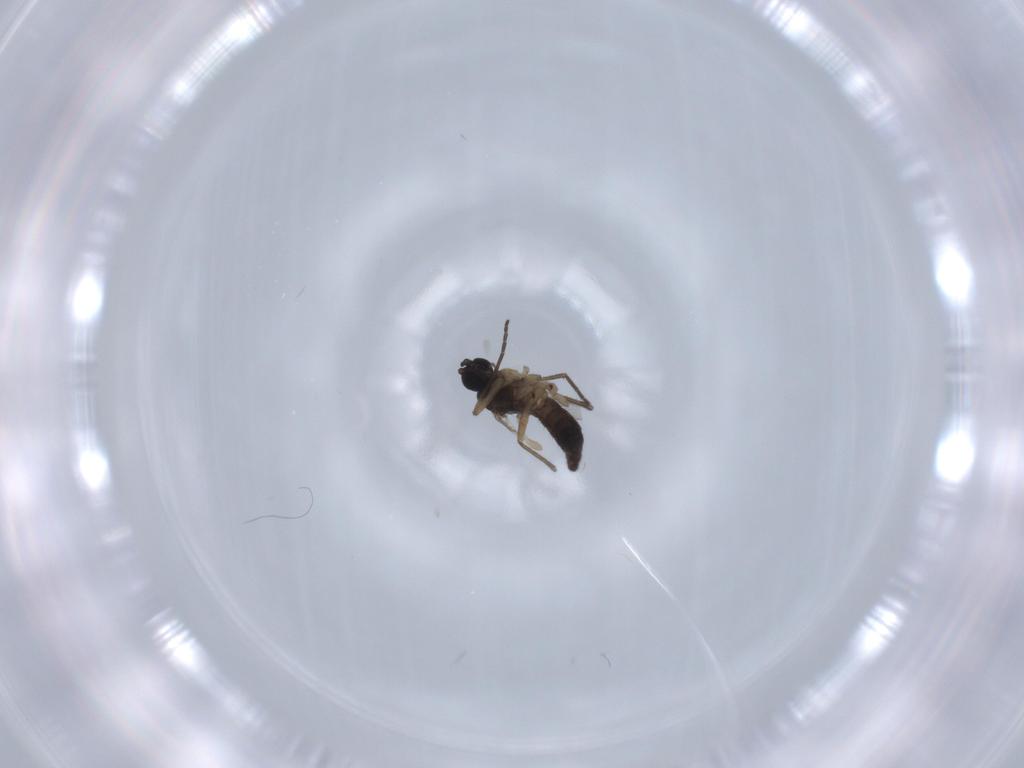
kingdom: Animalia
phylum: Arthropoda
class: Insecta
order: Diptera
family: Sciaridae
